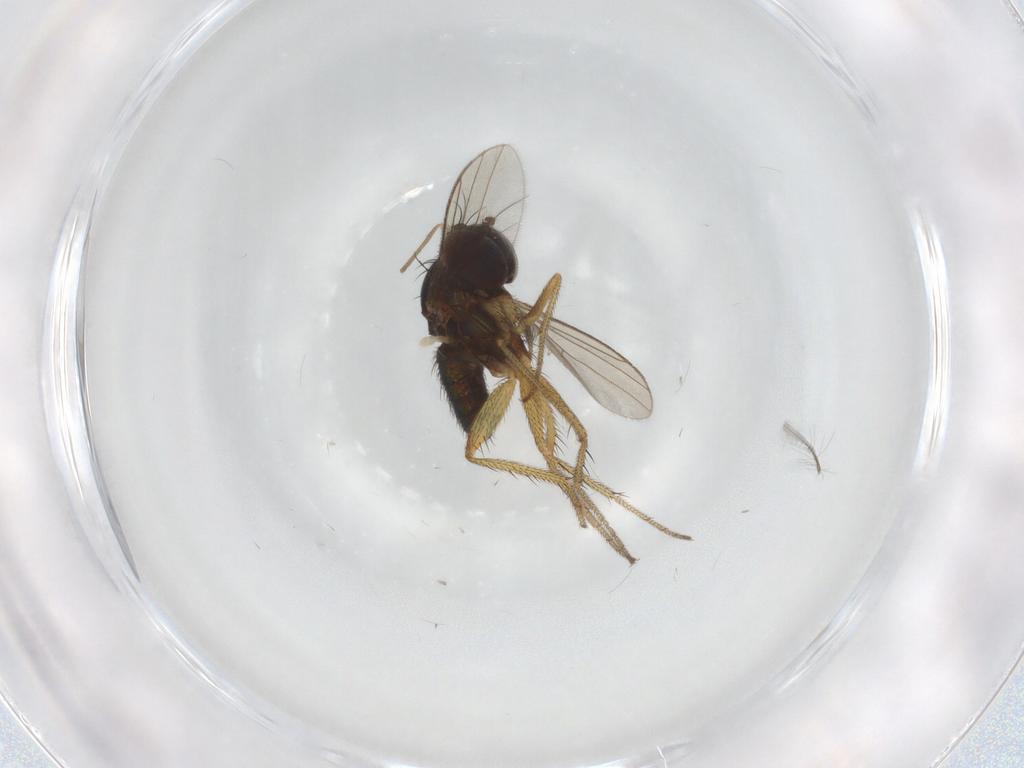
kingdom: Animalia
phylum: Arthropoda
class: Insecta
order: Diptera
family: Chironomidae
